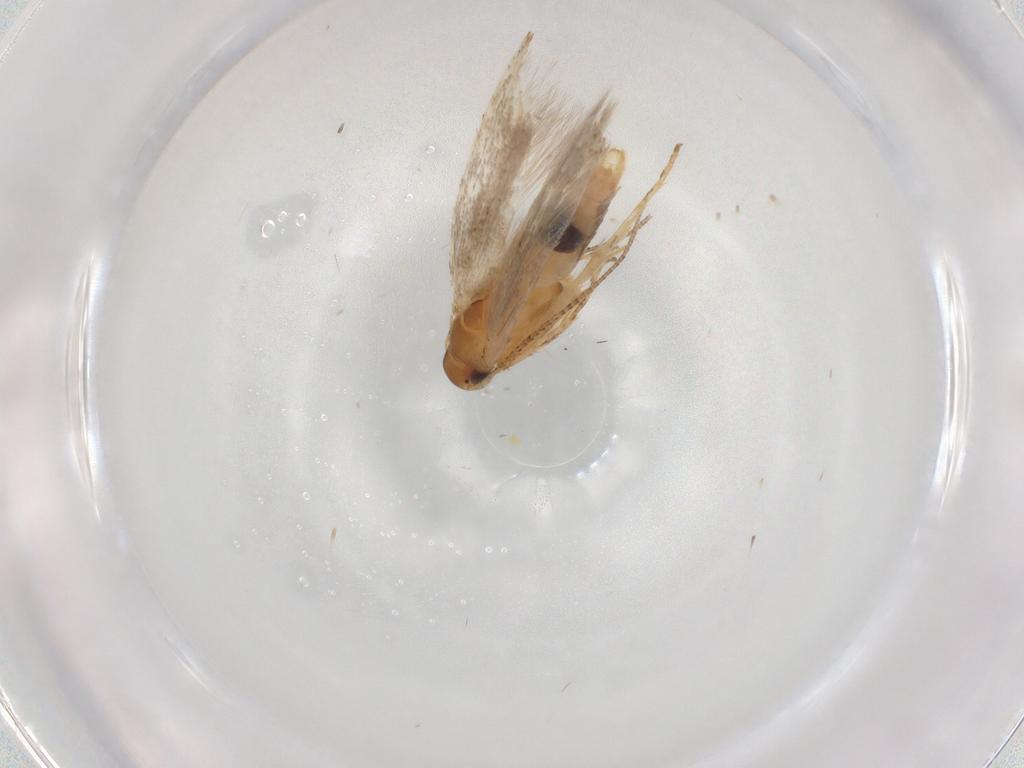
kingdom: Animalia
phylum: Arthropoda
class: Insecta
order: Lepidoptera
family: Gelechiidae
